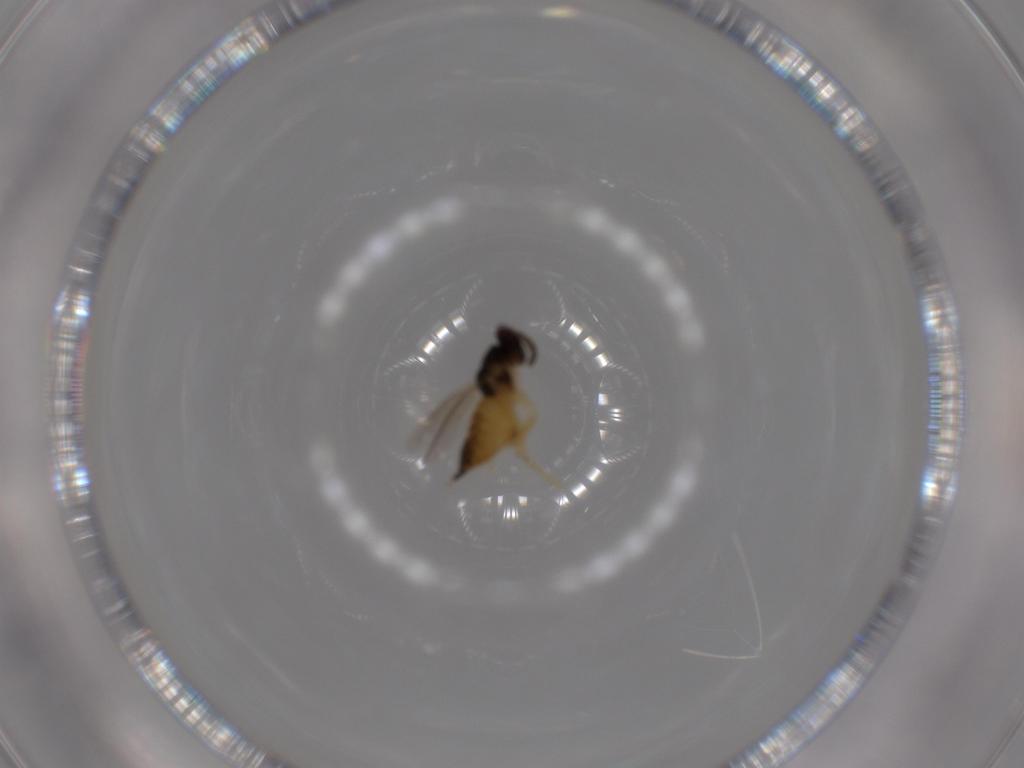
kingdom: Animalia
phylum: Arthropoda
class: Insecta
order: Hymenoptera
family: Eulophidae
